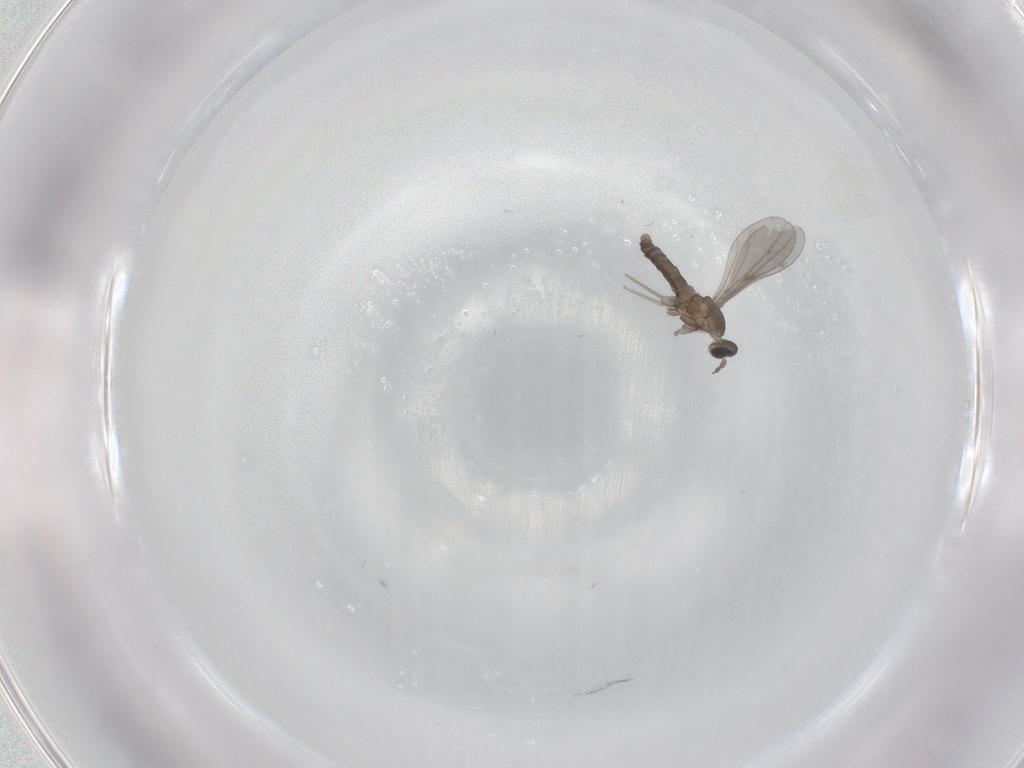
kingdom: Animalia
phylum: Arthropoda
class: Insecta
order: Diptera
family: Cecidomyiidae
